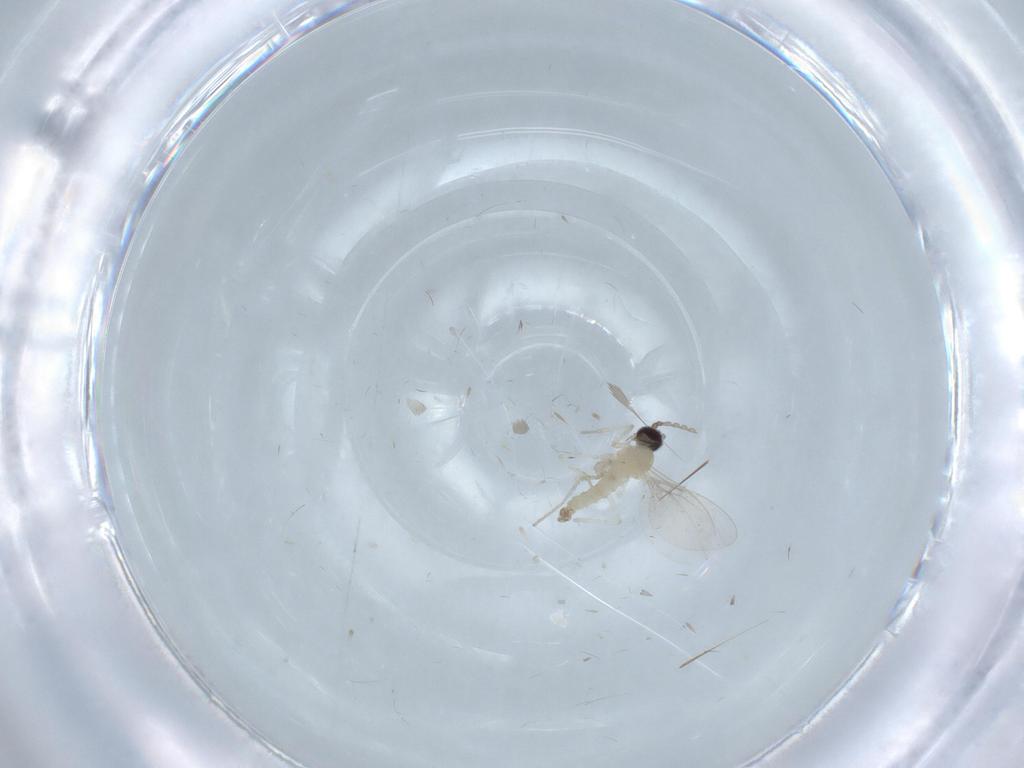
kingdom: Animalia
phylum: Arthropoda
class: Insecta
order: Diptera
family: Cecidomyiidae
